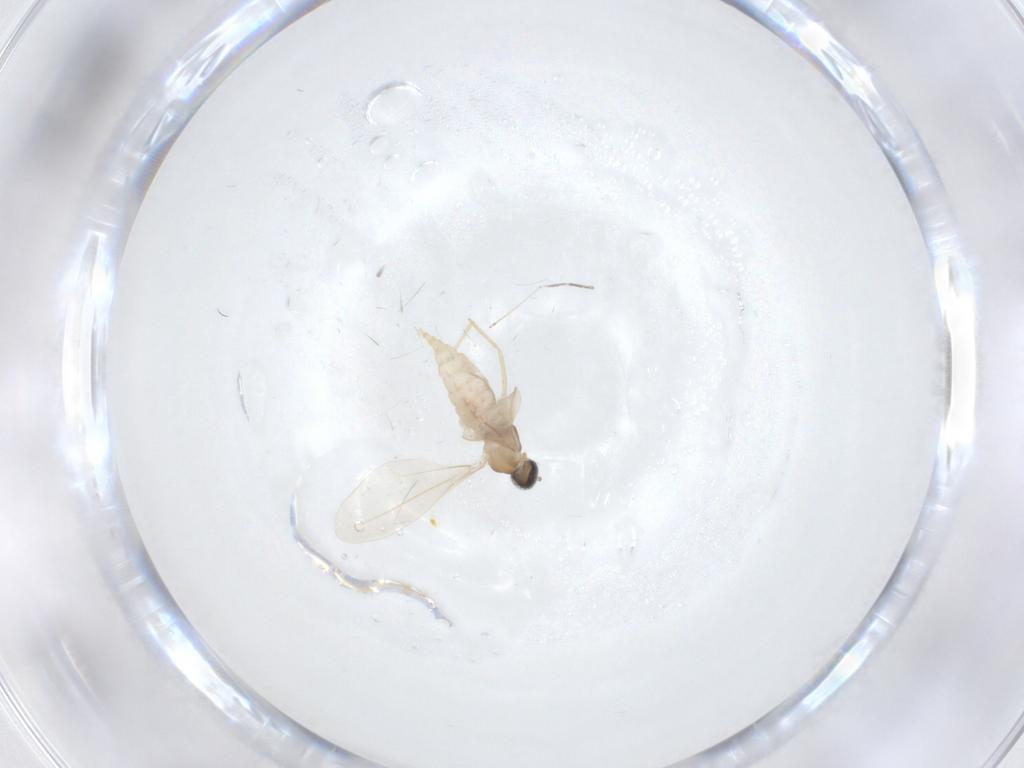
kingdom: Animalia
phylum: Arthropoda
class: Insecta
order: Diptera
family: Cecidomyiidae
